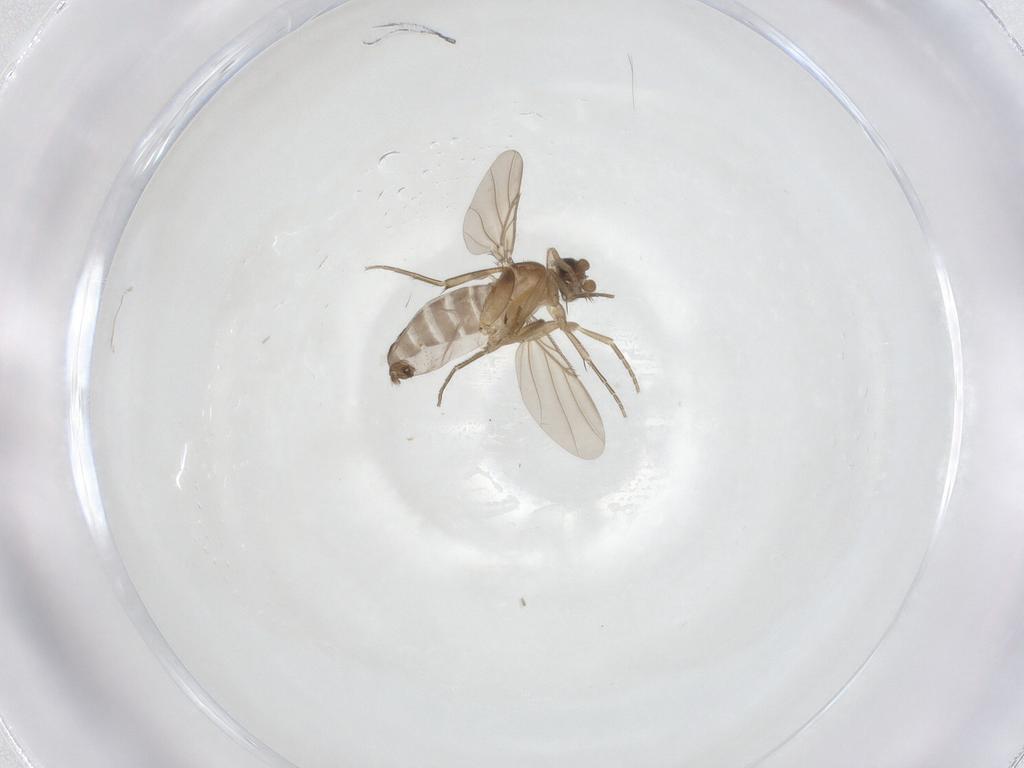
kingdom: Animalia
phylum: Arthropoda
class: Insecta
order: Diptera
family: Phoridae
